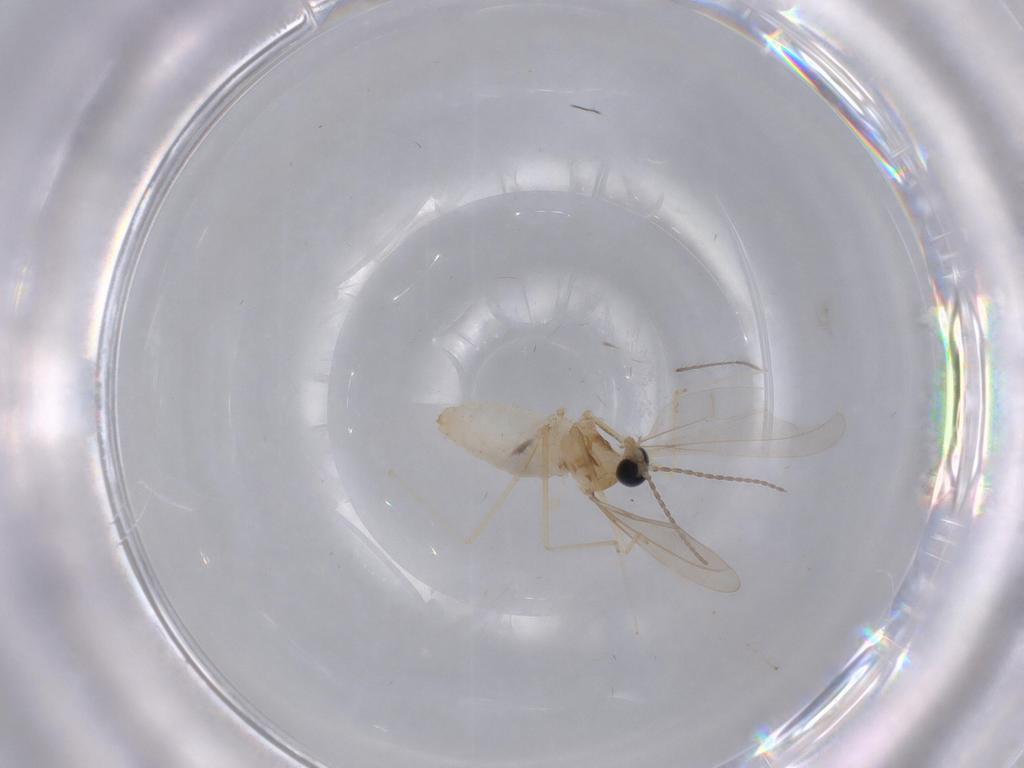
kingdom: Animalia
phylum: Arthropoda
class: Insecta
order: Diptera
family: Cecidomyiidae
